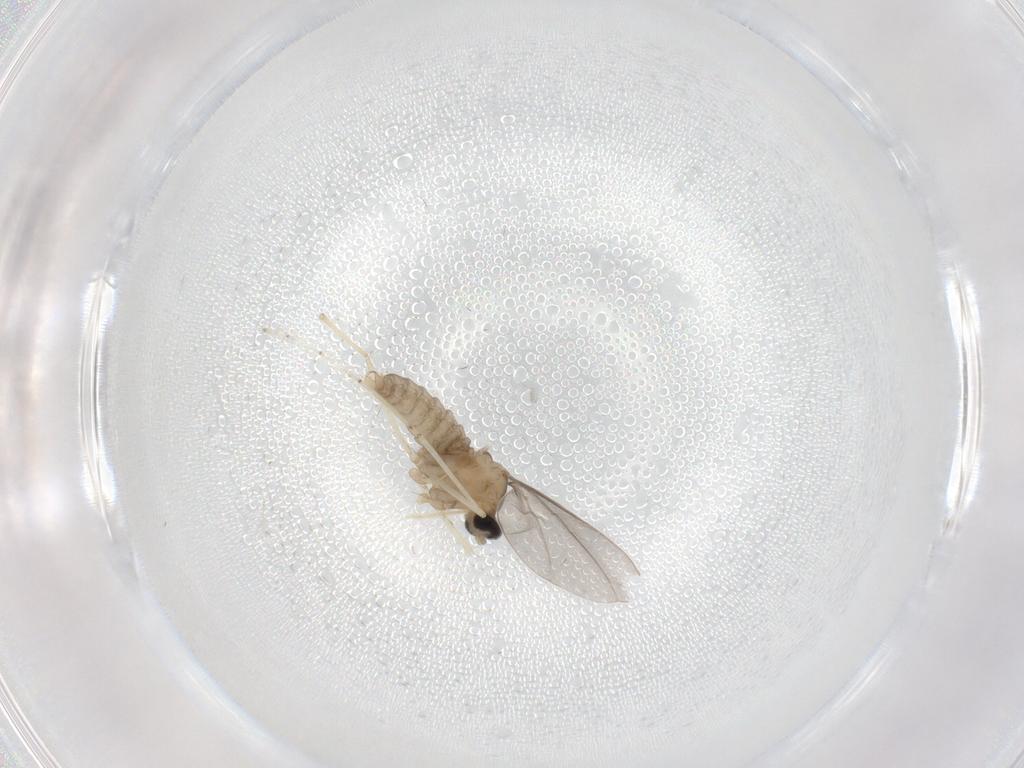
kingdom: Animalia
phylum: Arthropoda
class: Insecta
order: Diptera
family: Cecidomyiidae
